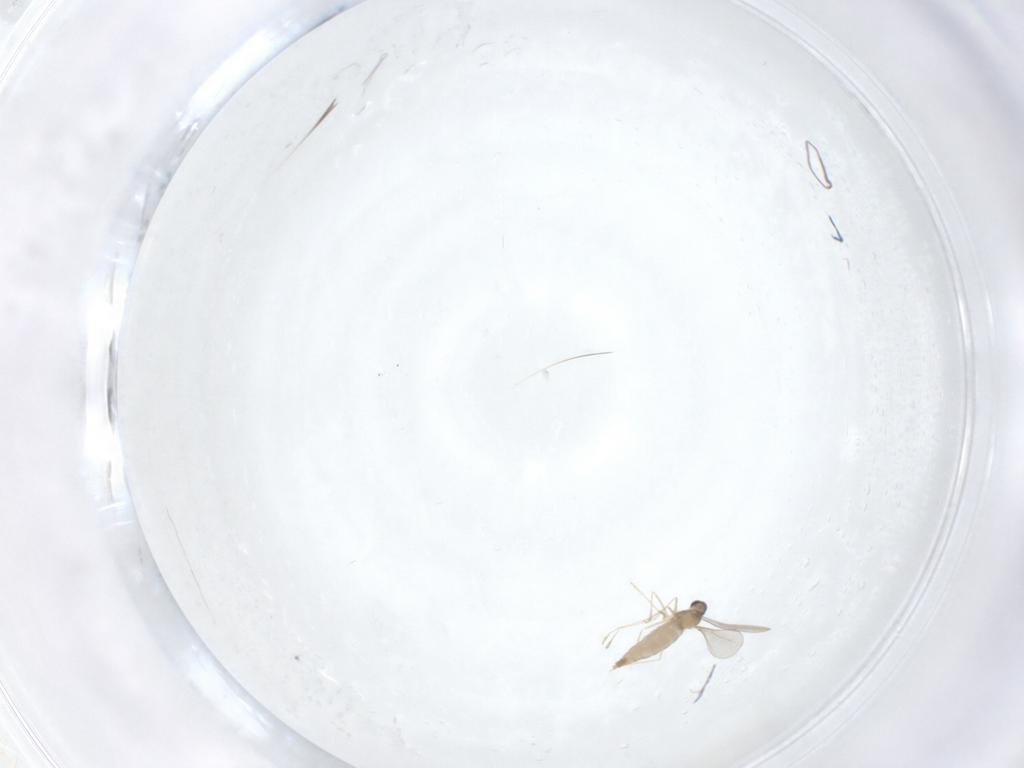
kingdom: Animalia
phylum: Arthropoda
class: Insecta
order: Diptera
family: Cecidomyiidae
